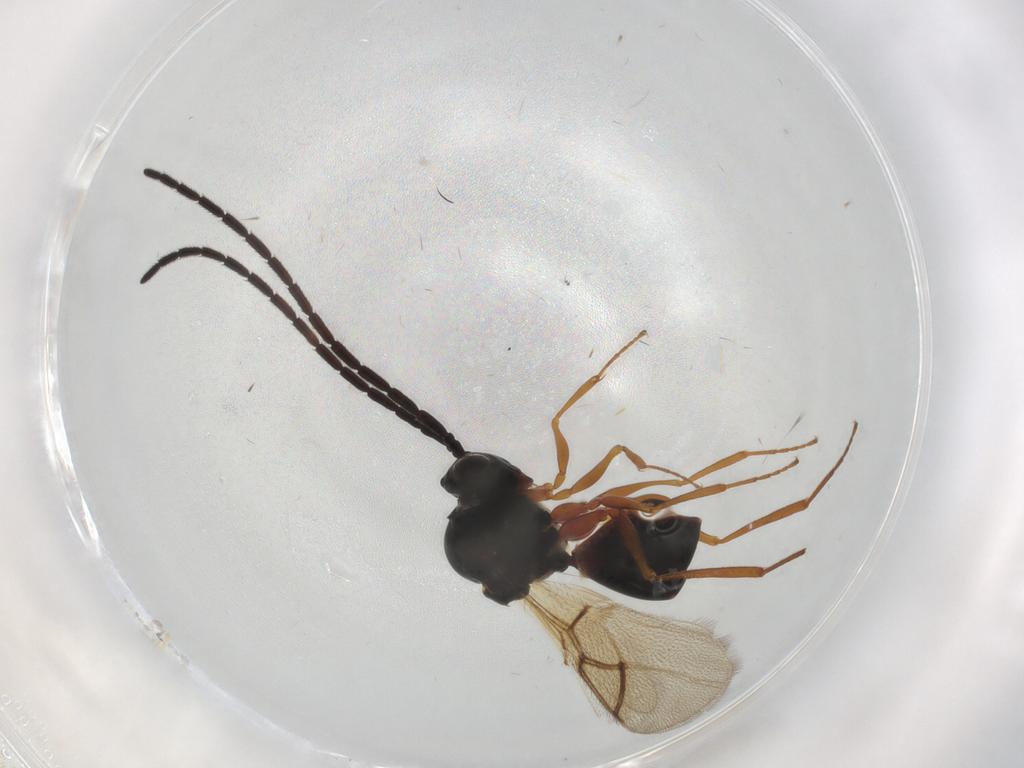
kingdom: Animalia
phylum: Arthropoda
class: Insecta
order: Hymenoptera
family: Figitidae
